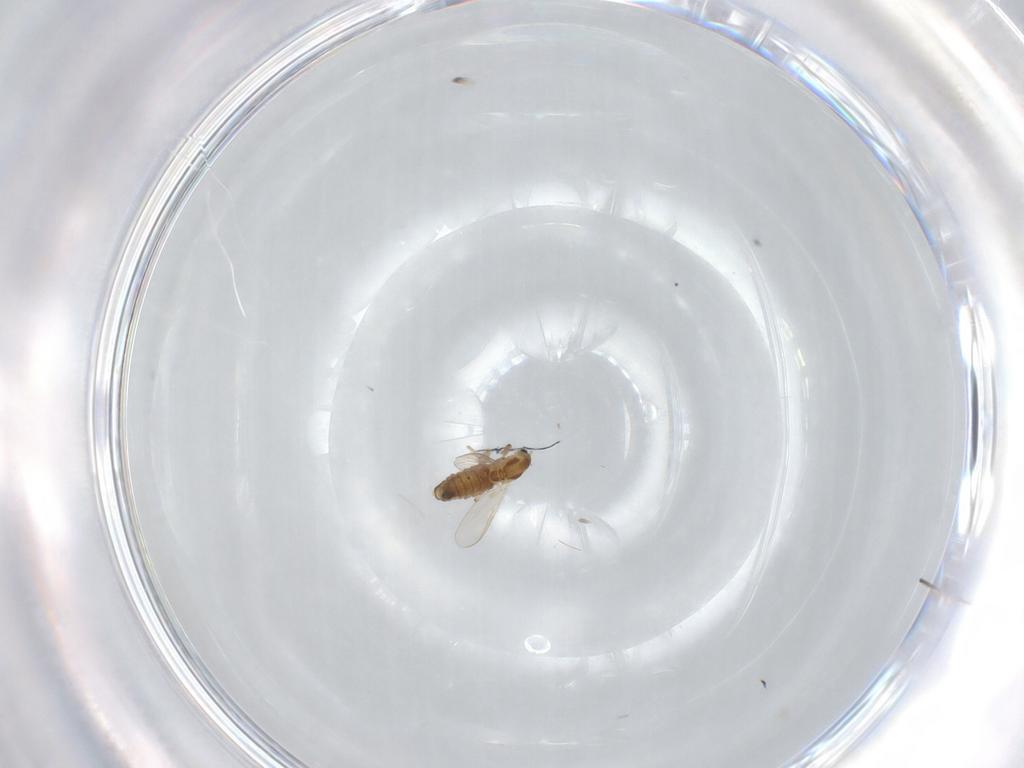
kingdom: Animalia
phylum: Arthropoda
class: Insecta
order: Diptera
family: Chironomidae
